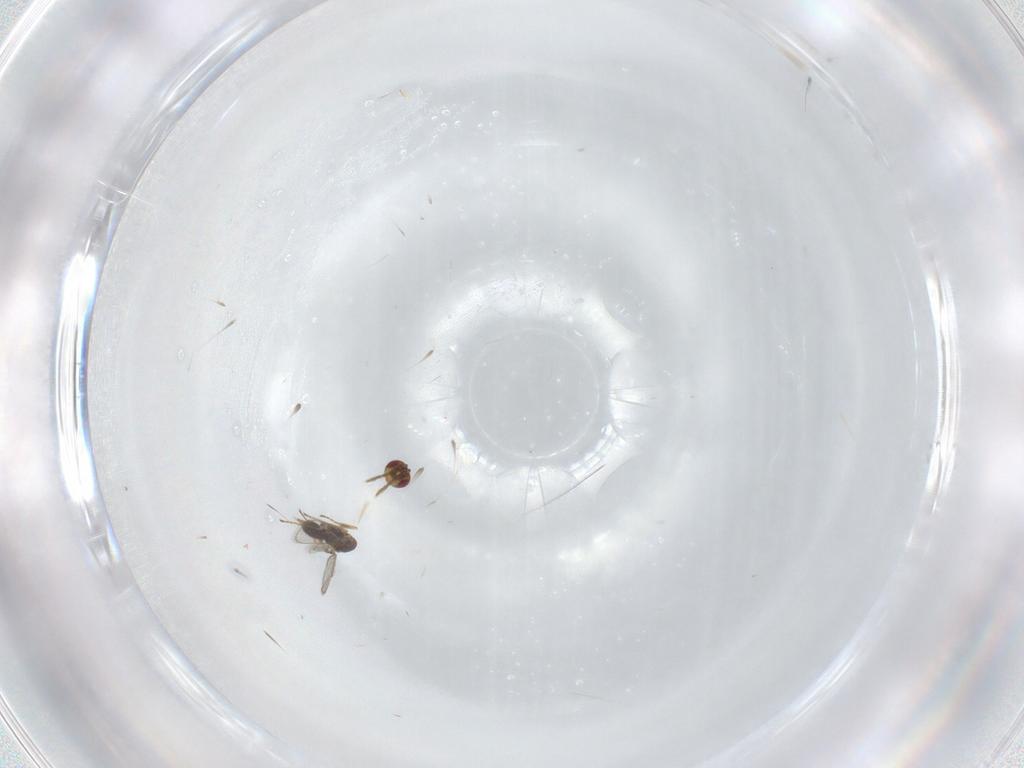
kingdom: Animalia
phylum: Arthropoda
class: Insecta
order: Hymenoptera
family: Eulophidae
